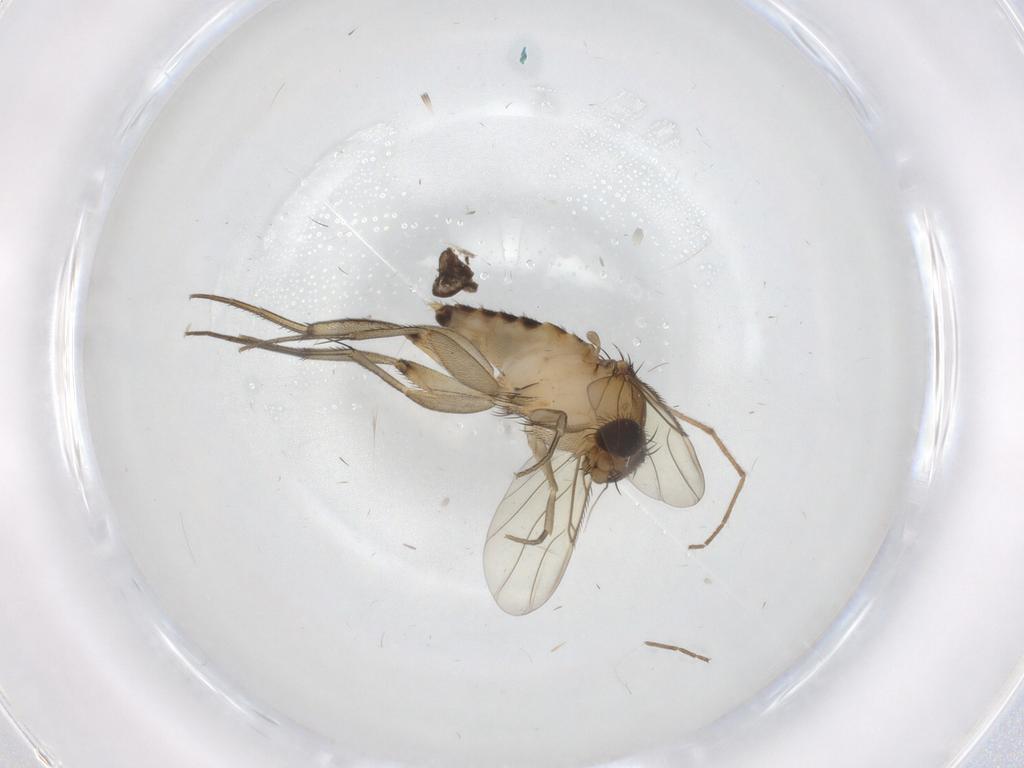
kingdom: Animalia
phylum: Arthropoda
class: Insecta
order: Diptera
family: Phoridae
